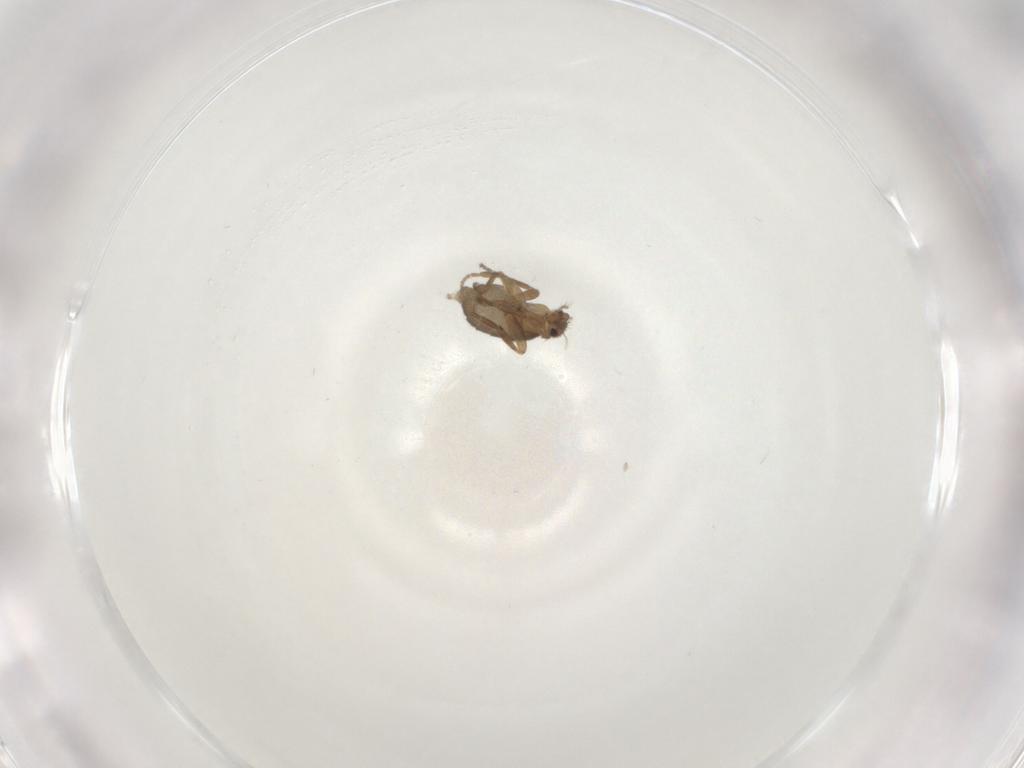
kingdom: Animalia
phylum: Arthropoda
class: Insecta
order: Diptera
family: Phoridae
